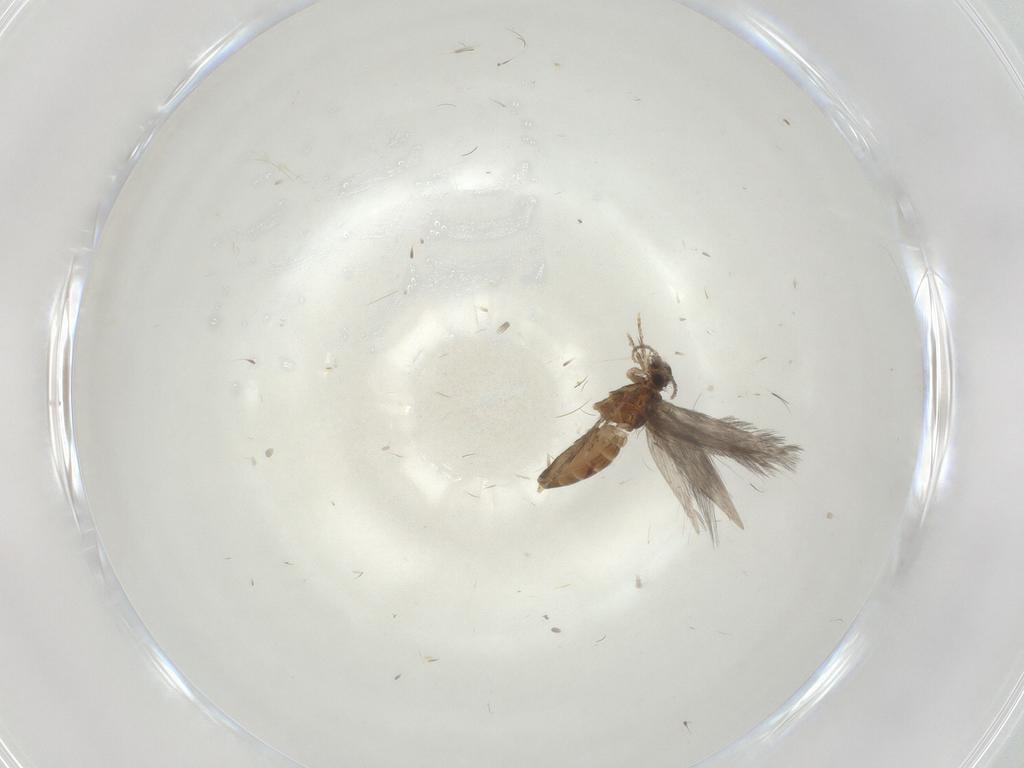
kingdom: Animalia
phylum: Arthropoda
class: Insecta
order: Trichoptera
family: Hydroptilidae
